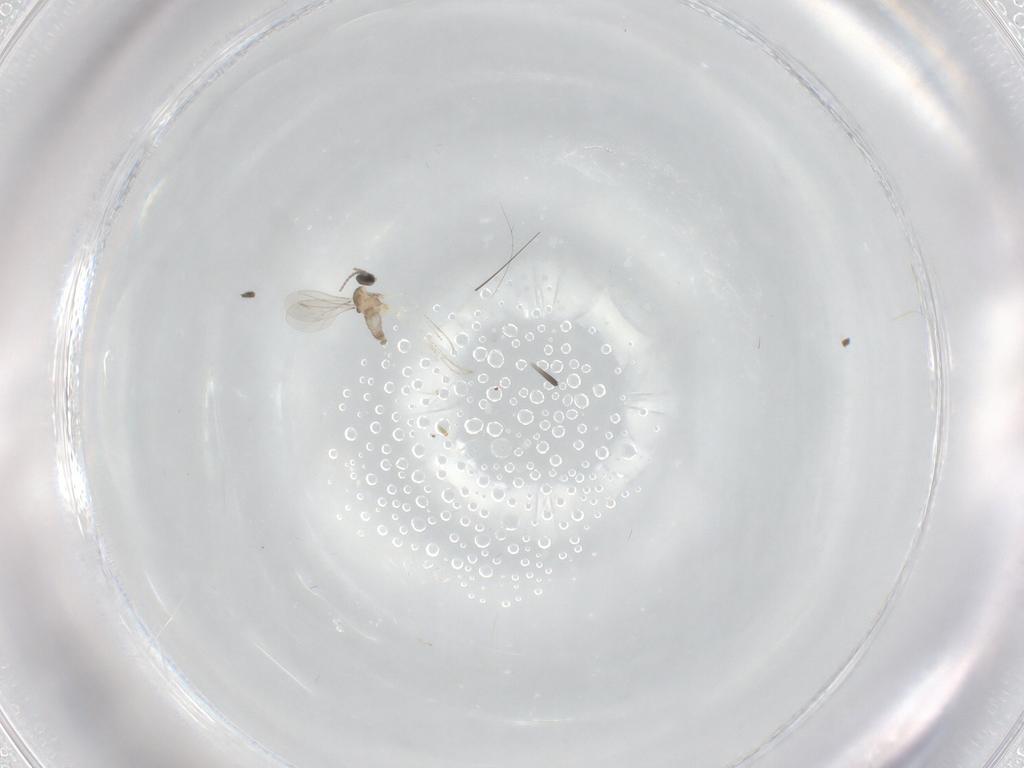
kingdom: Animalia
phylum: Arthropoda
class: Insecta
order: Diptera
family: Cecidomyiidae
